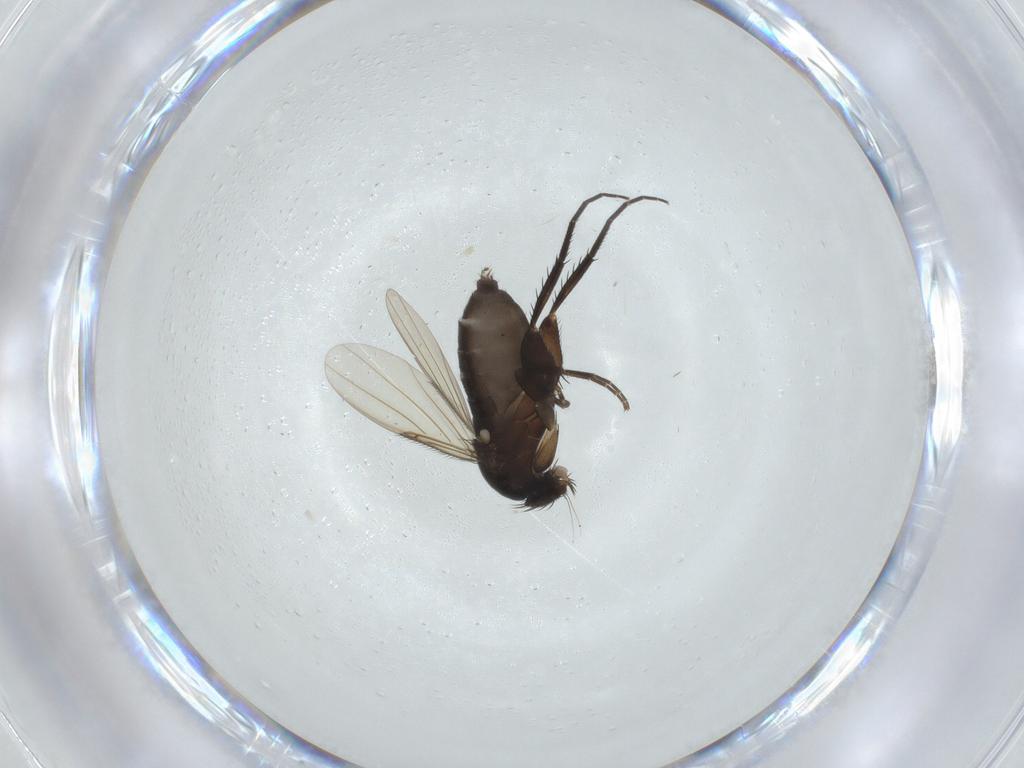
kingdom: Animalia
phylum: Arthropoda
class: Insecta
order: Diptera
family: Phoridae
